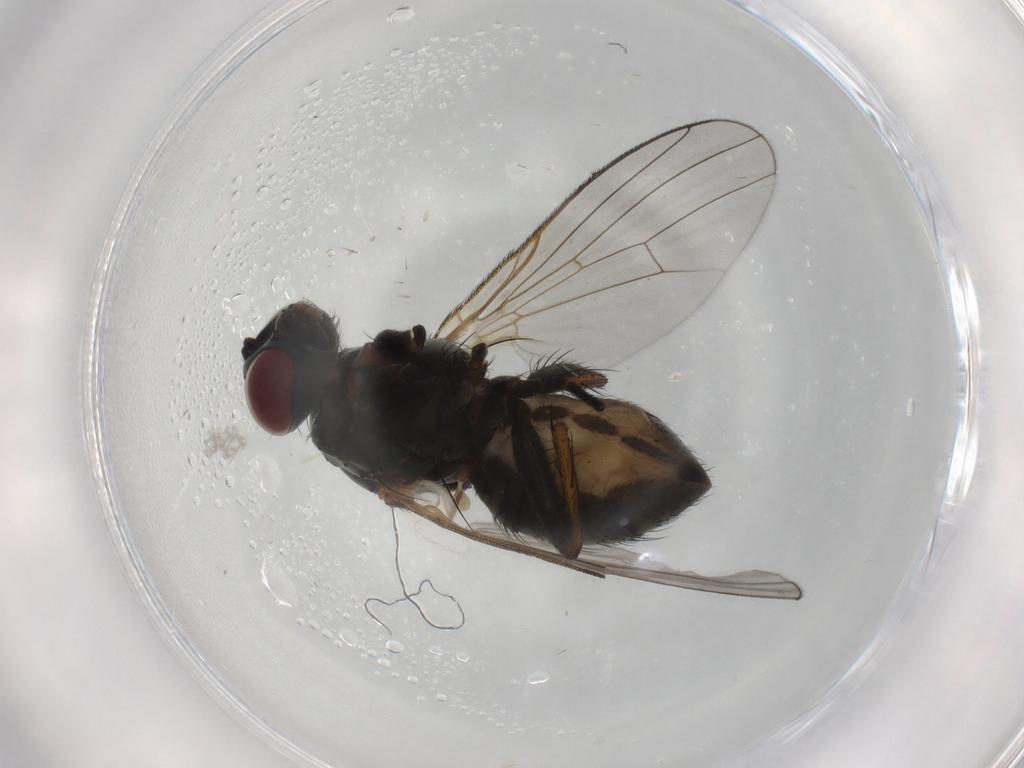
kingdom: Animalia
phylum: Arthropoda
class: Insecta
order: Diptera
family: Muscidae
